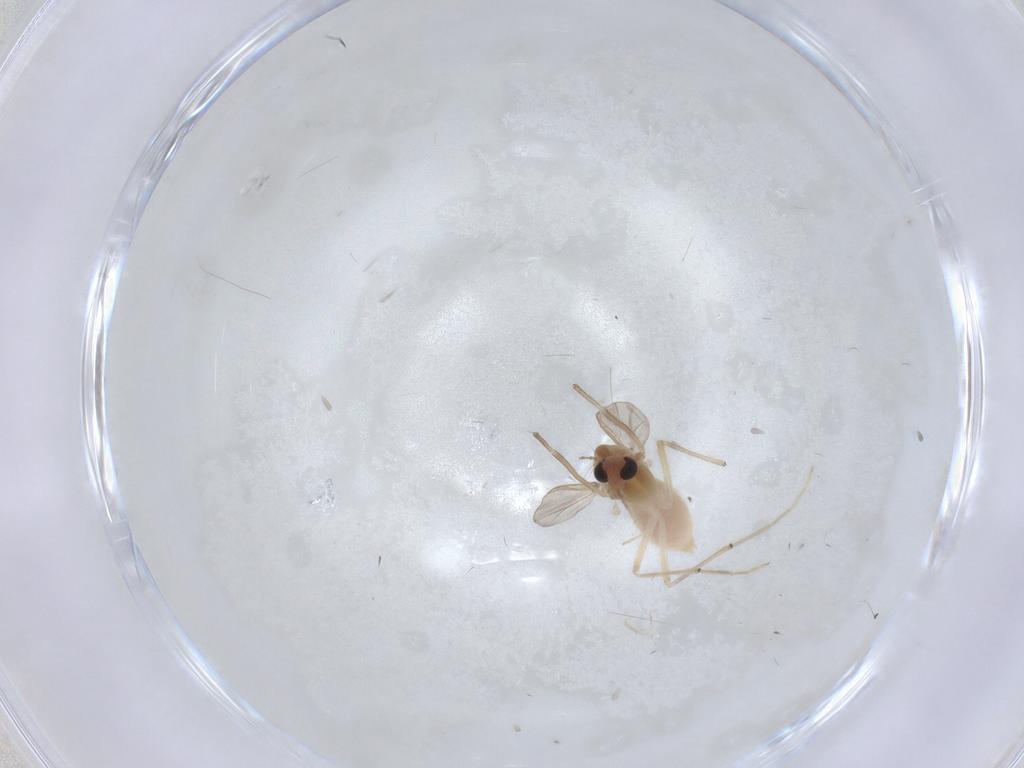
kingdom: Animalia
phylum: Arthropoda
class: Insecta
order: Diptera
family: Chironomidae
